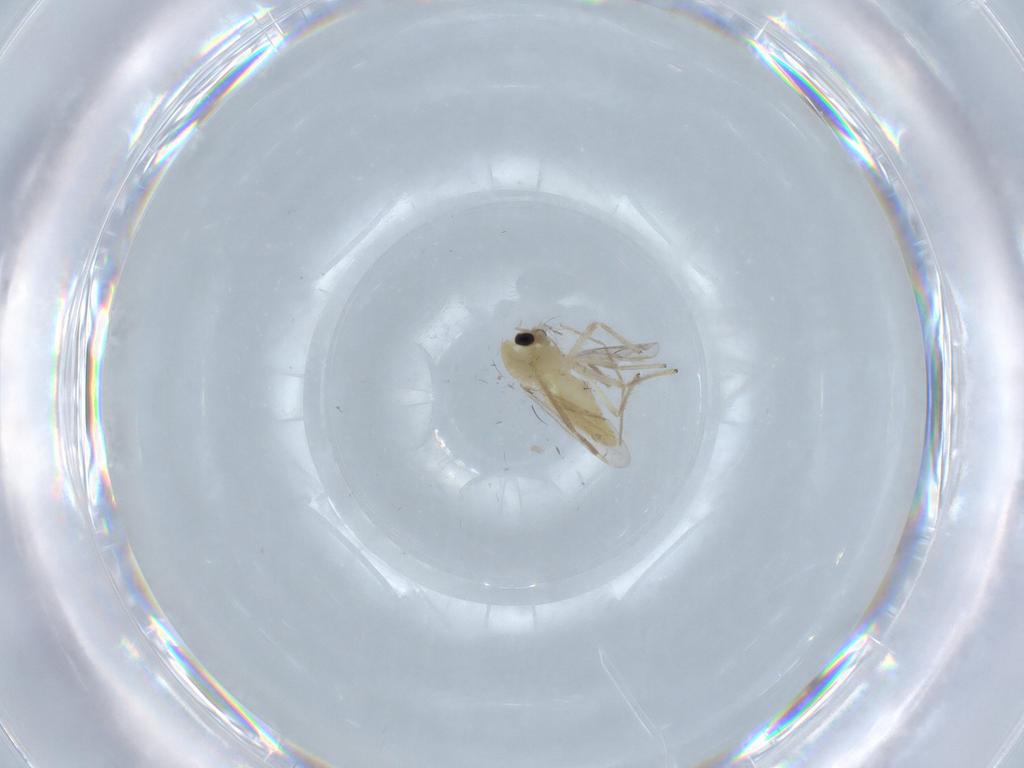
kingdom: Animalia
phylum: Arthropoda
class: Insecta
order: Diptera
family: Chironomidae
